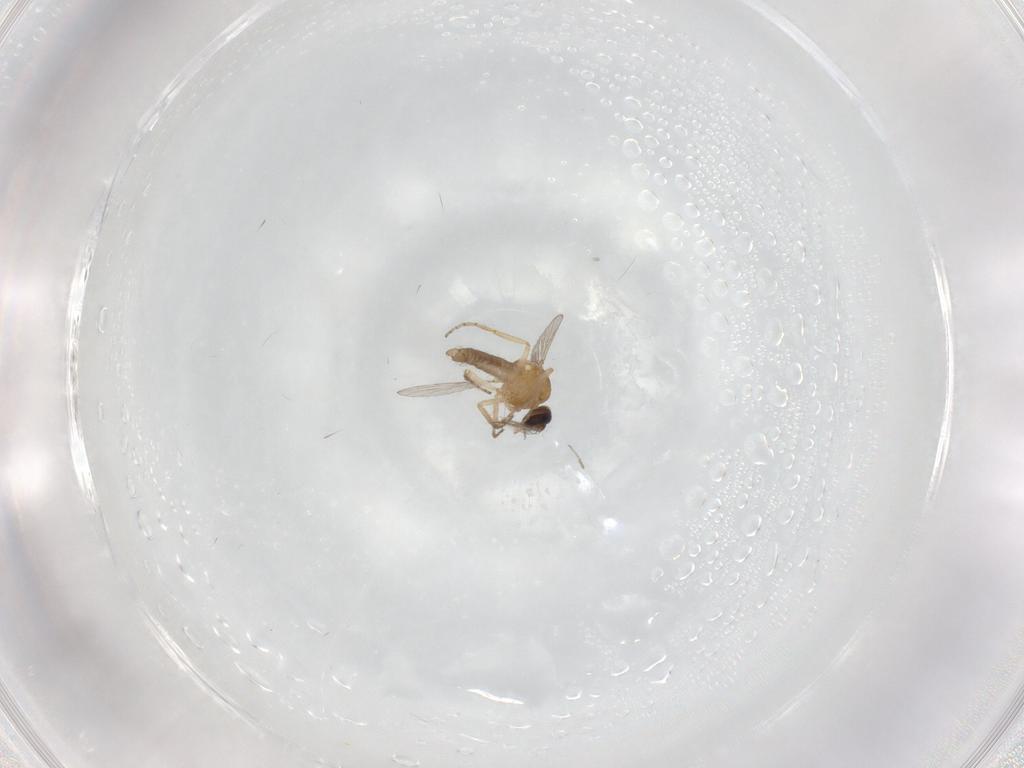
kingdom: Animalia
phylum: Arthropoda
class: Insecta
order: Diptera
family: Ceratopogonidae
